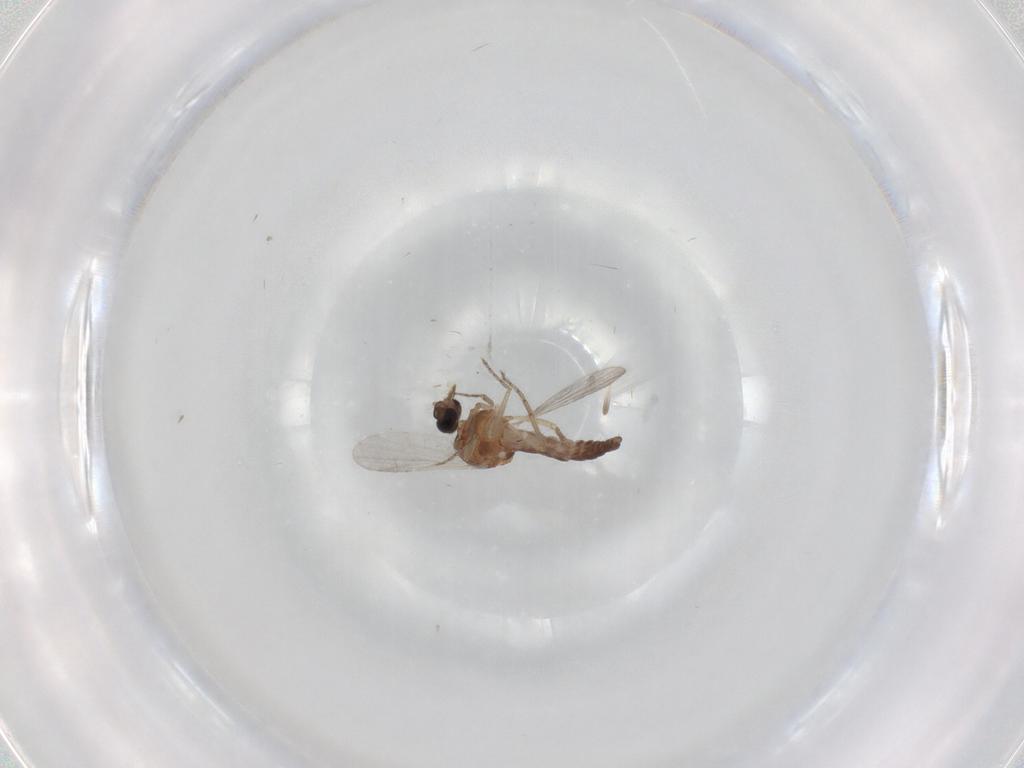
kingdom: Animalia
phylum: Arthropoda
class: Insecta
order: Diptera
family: Ceratopogonidae
